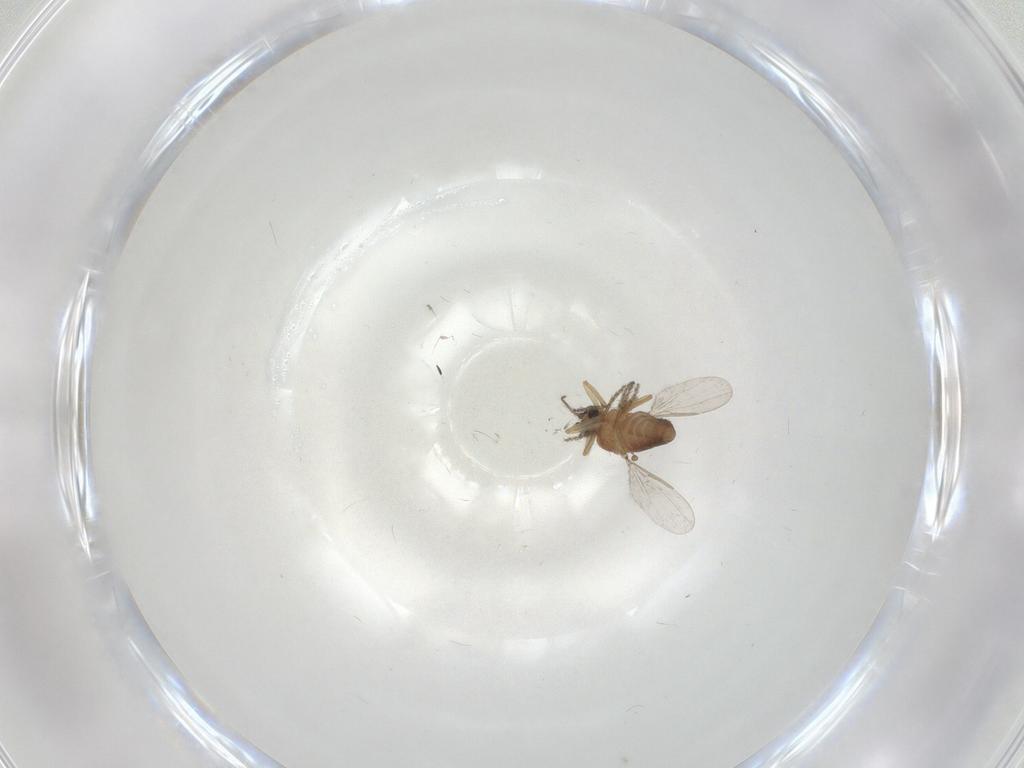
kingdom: Animalia
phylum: Arthropoda
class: Insecta
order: Diptera
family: Ceratopogonidae
